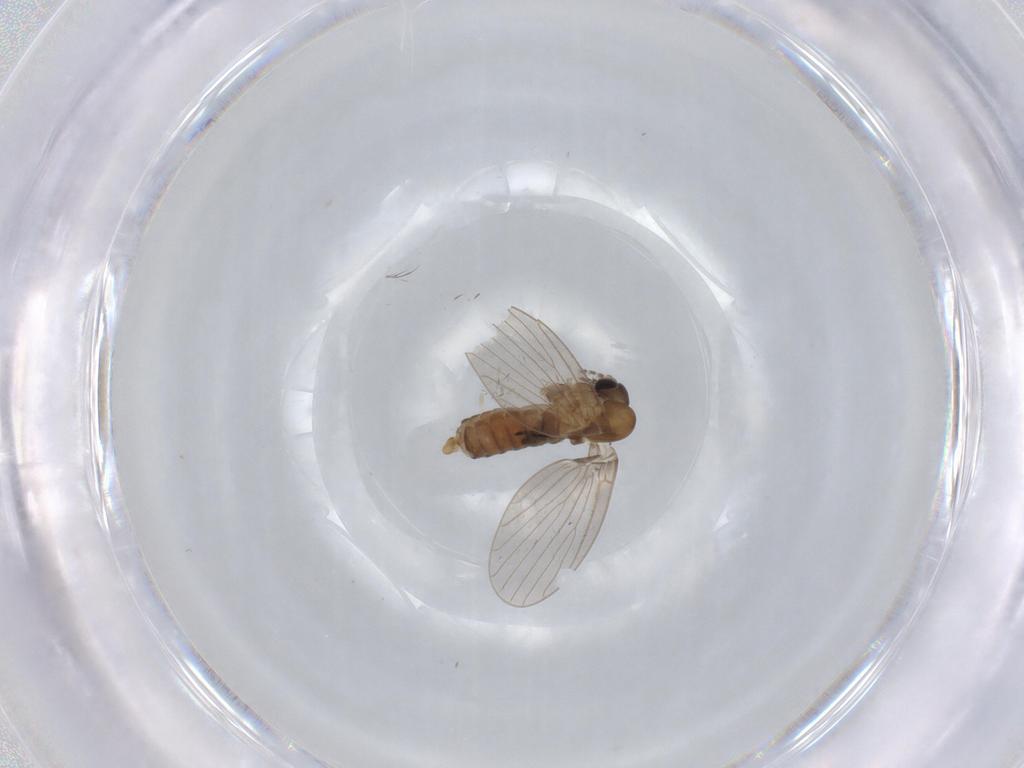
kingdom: Animalia
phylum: Arthropoda
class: Insecta
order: Diptera
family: Psychodidae
